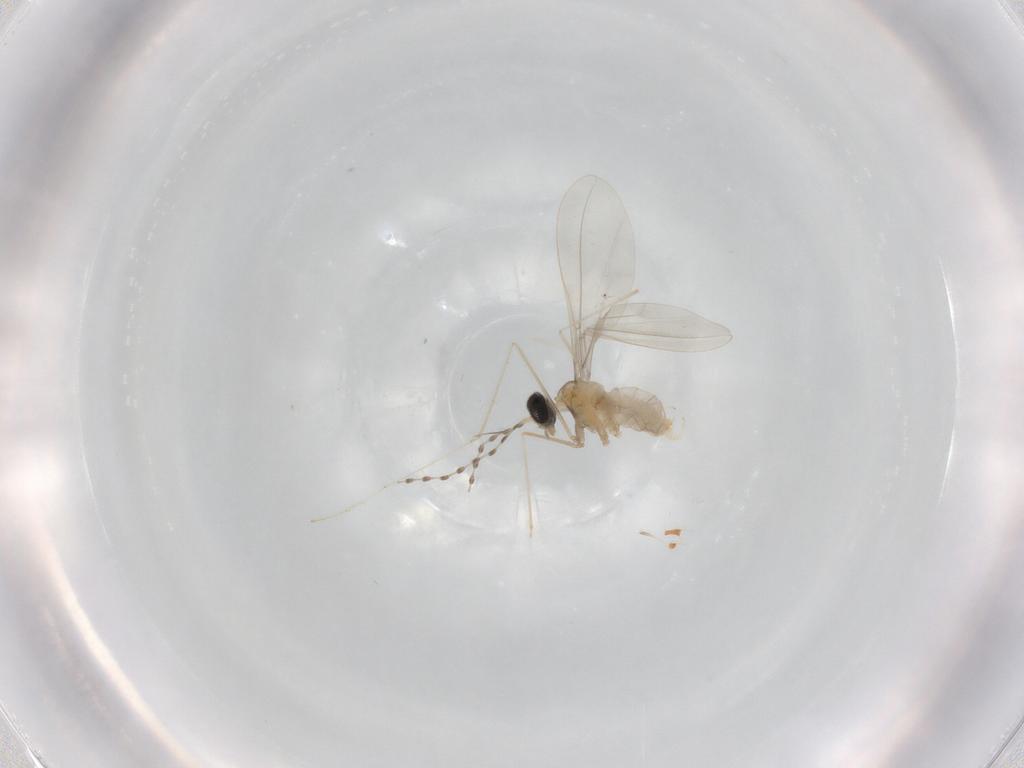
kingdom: Animalia
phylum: Arthropoda
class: Insecta
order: Diptera
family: Cecidomyiidae
